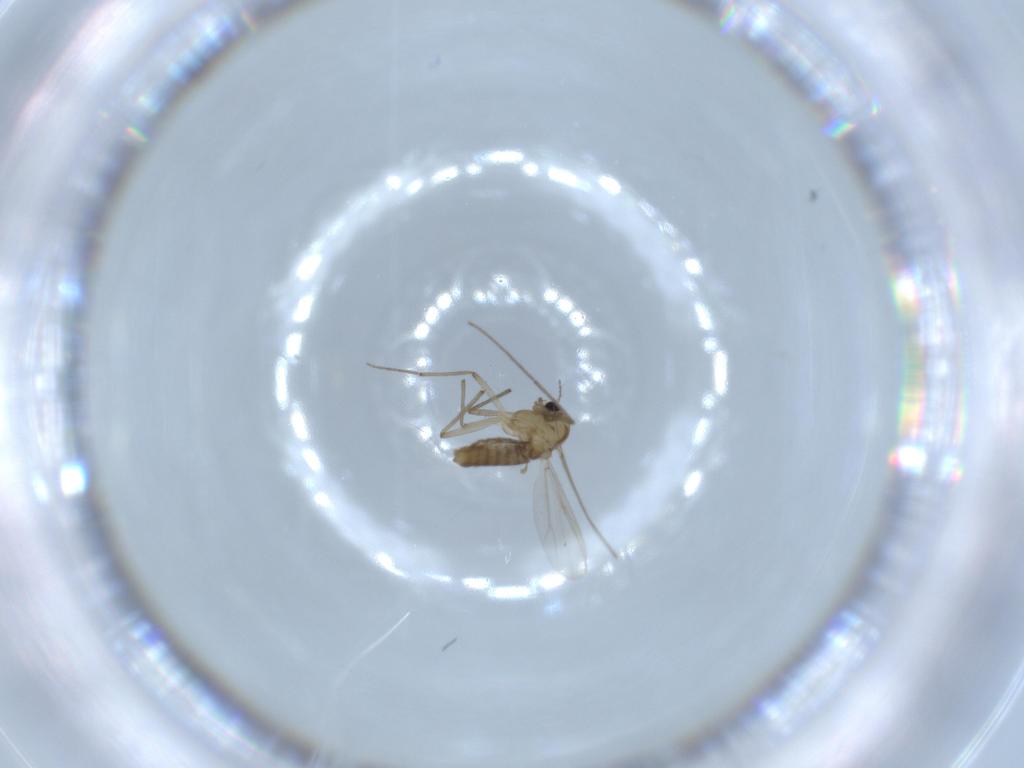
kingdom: Animalia
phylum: Arthropoda
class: Insecta
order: Diptera
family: Chironomidae
